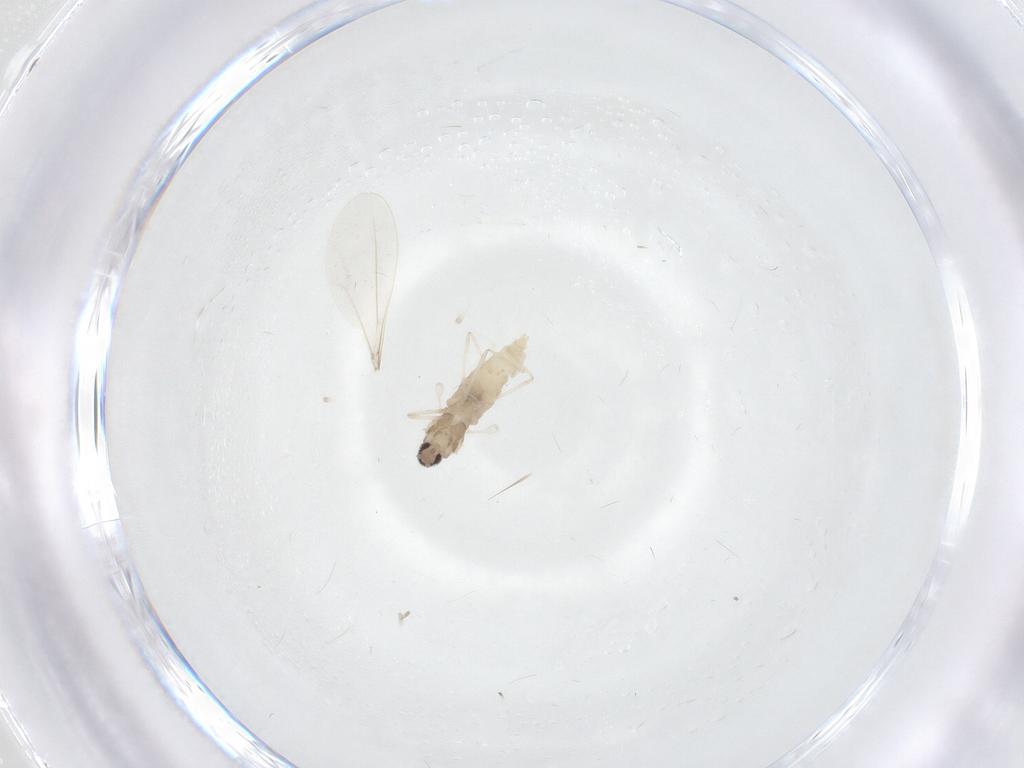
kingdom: Animalia
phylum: Arthropoda
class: Insecta
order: Diptera
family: Cecidomyiidae
